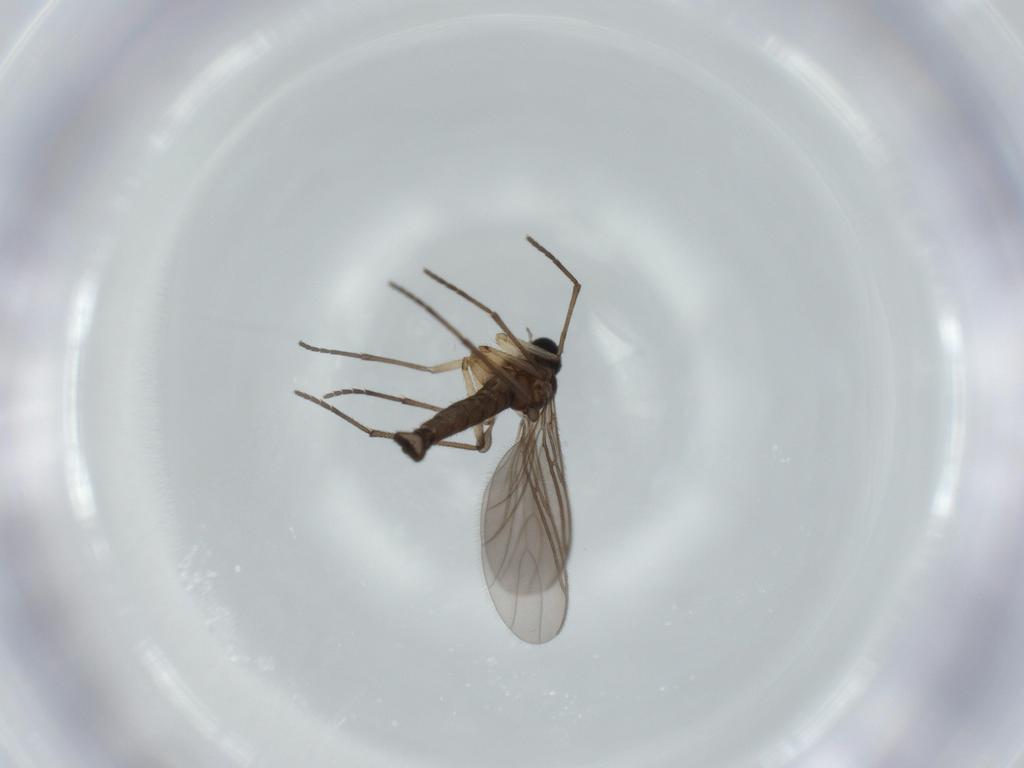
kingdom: Animalia
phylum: Arthropoda
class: Insecta
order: Diptera
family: Sciaridae
